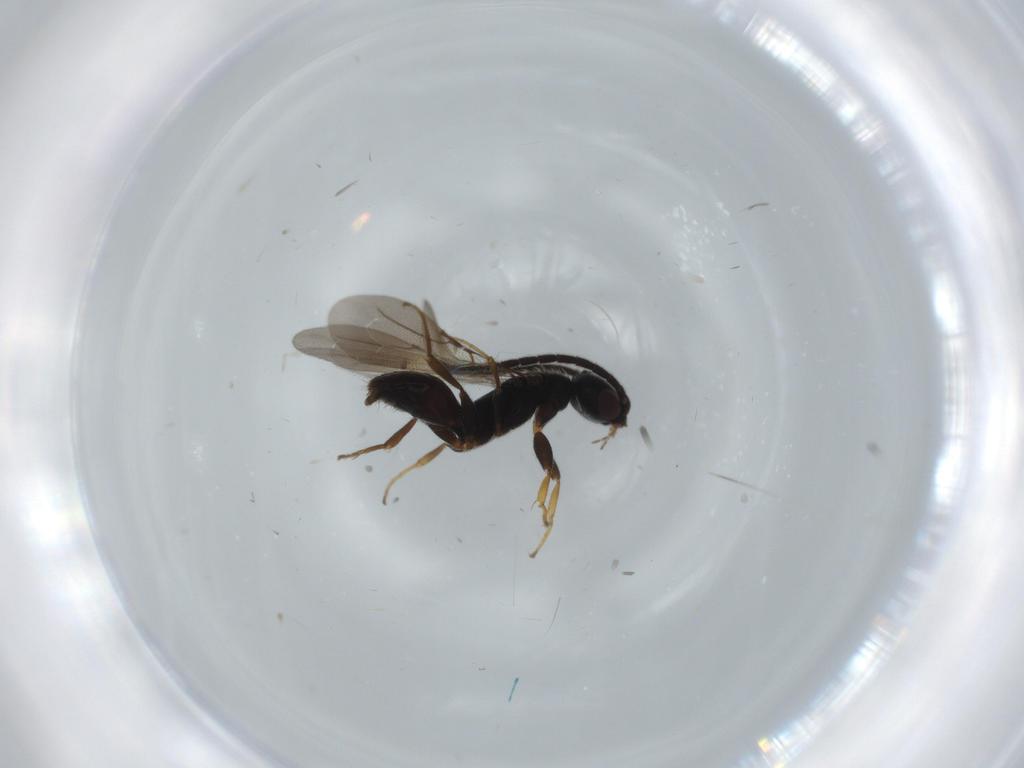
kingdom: Animalia
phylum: Arthropoda
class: Insecta
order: Hymenoptera
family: Bethylidae
